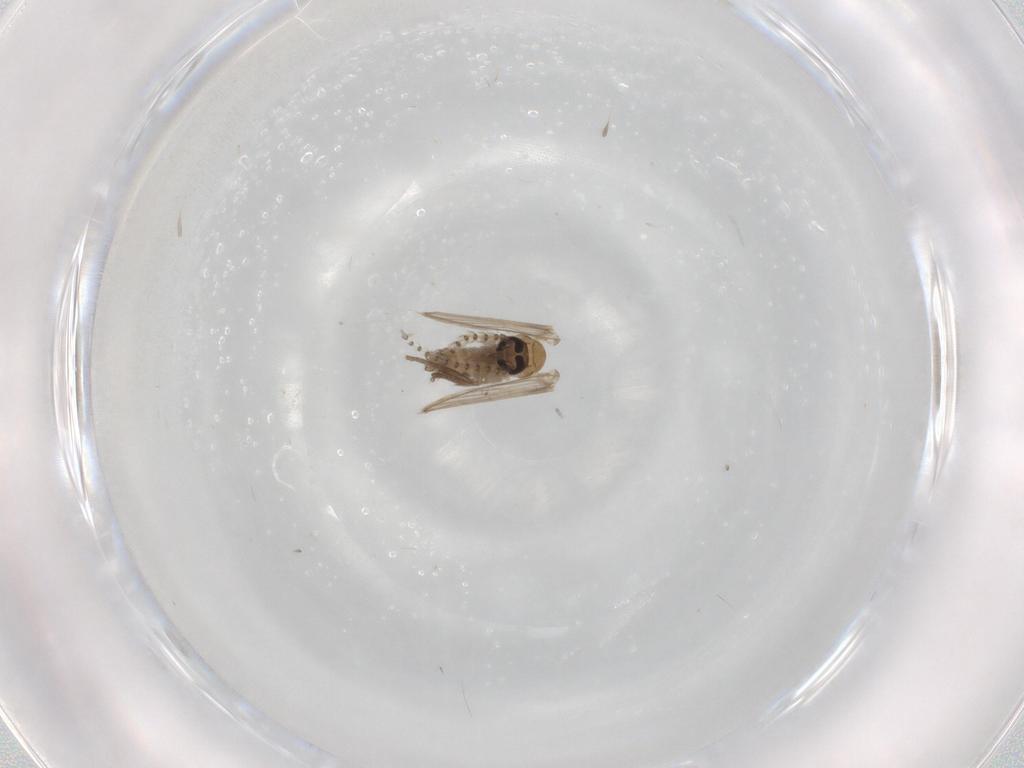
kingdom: Animalia
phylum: Arthropoda
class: Insecta
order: Diptera
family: Psychodidae
